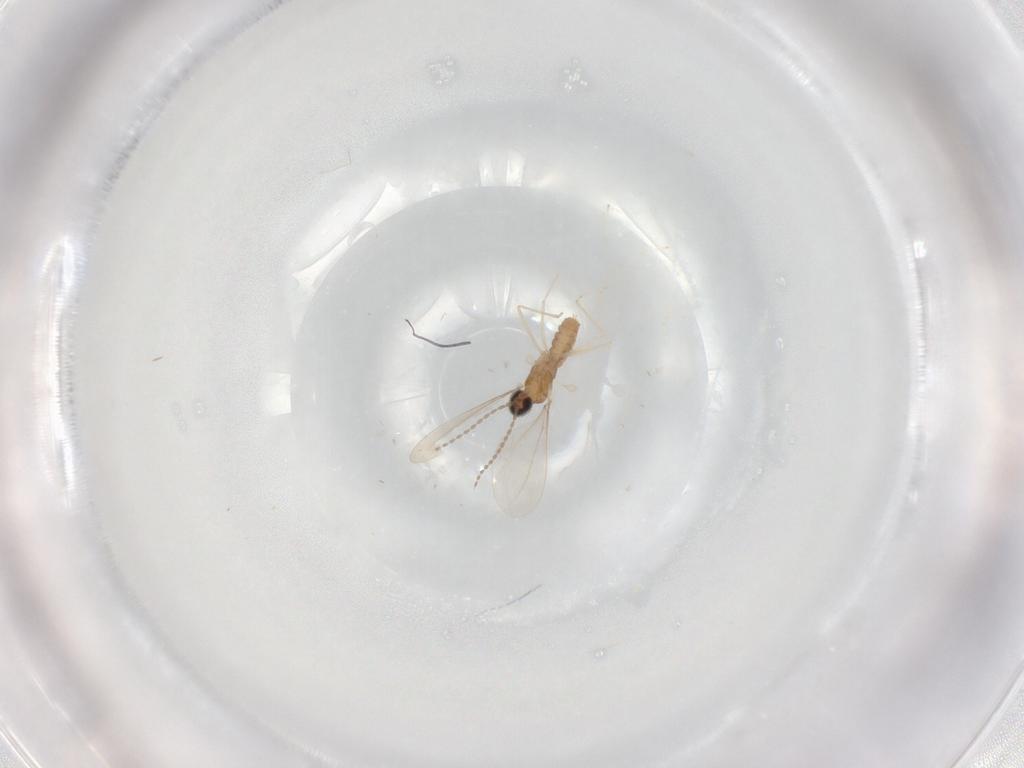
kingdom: Animalia
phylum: Arthropoda
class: Insecta
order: Diptera
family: Cecidomyiidae
